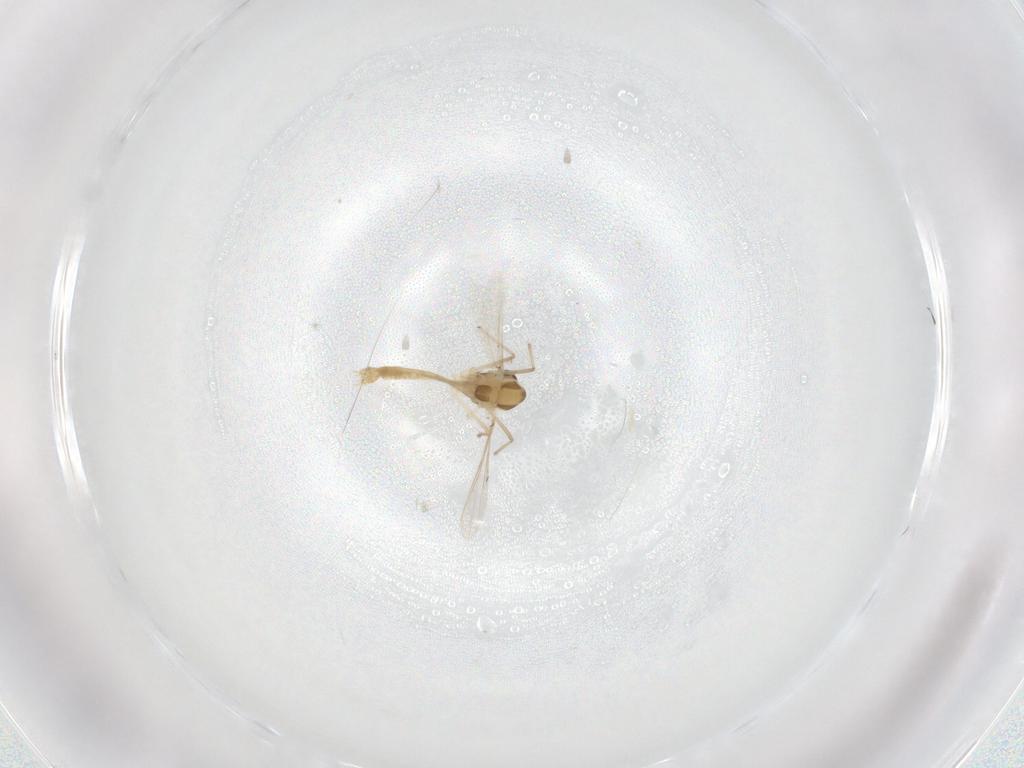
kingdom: Animalia
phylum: Arthropoda
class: Insecta
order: Diptera
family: Chironomidae
